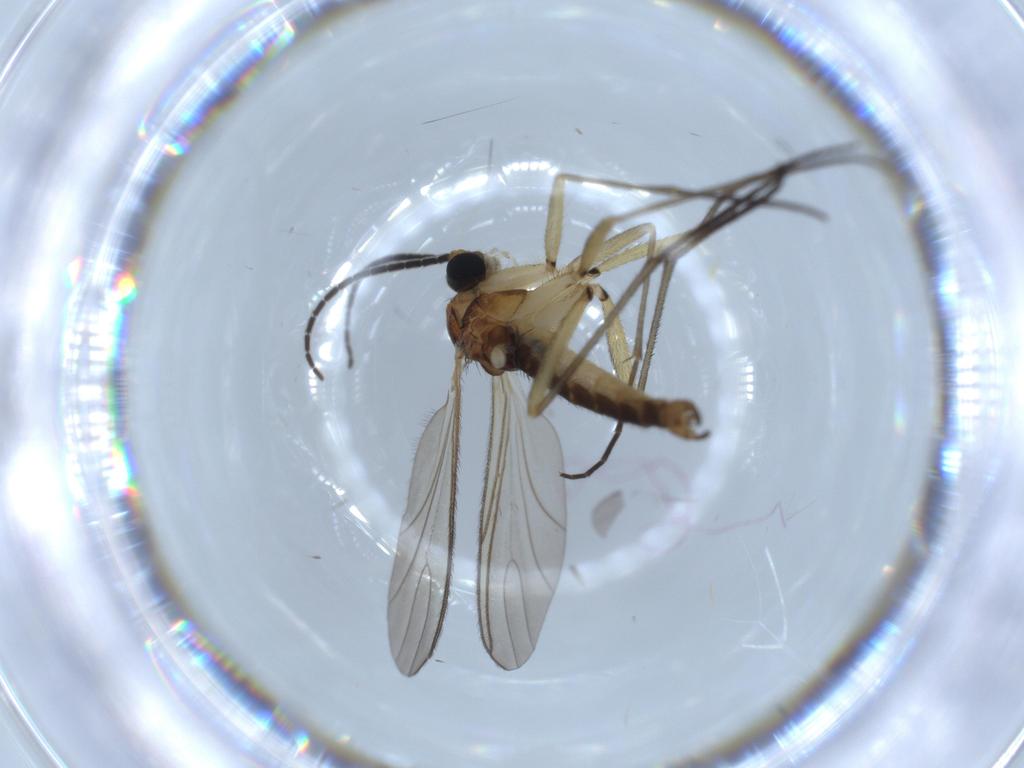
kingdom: Animalia
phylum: Arthropoda
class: Insecta
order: Diptera
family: Sciaridae
